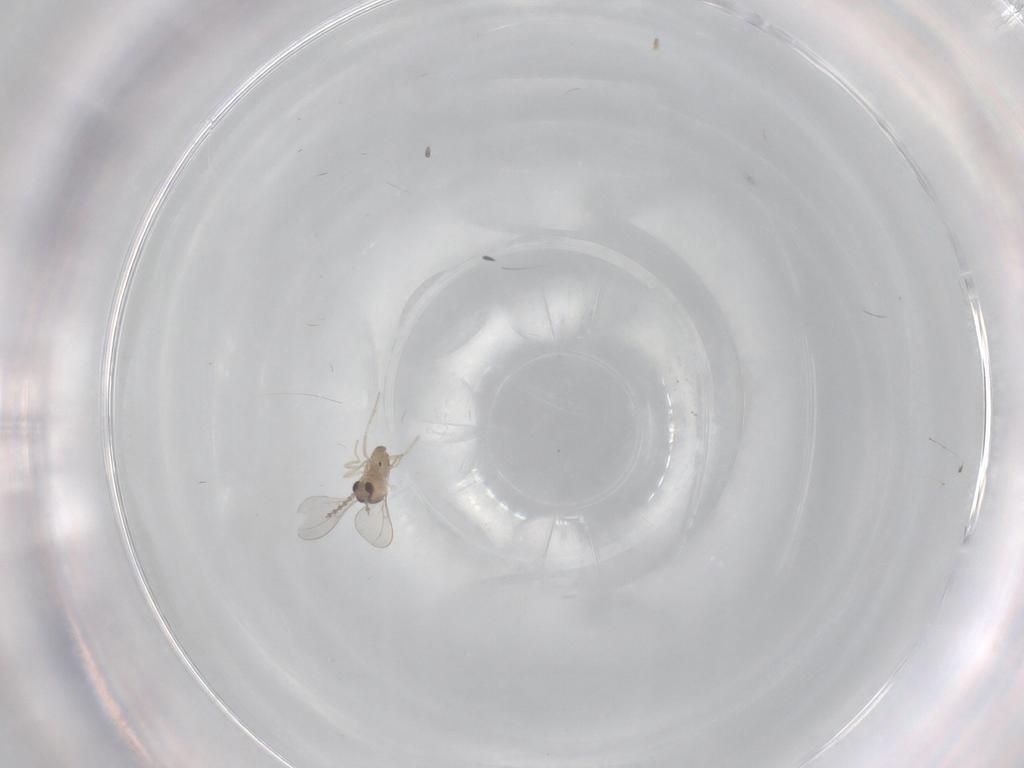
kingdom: Animalia
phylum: Arthropoda
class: Insecta
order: Diptera
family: Cecidomyiidae
